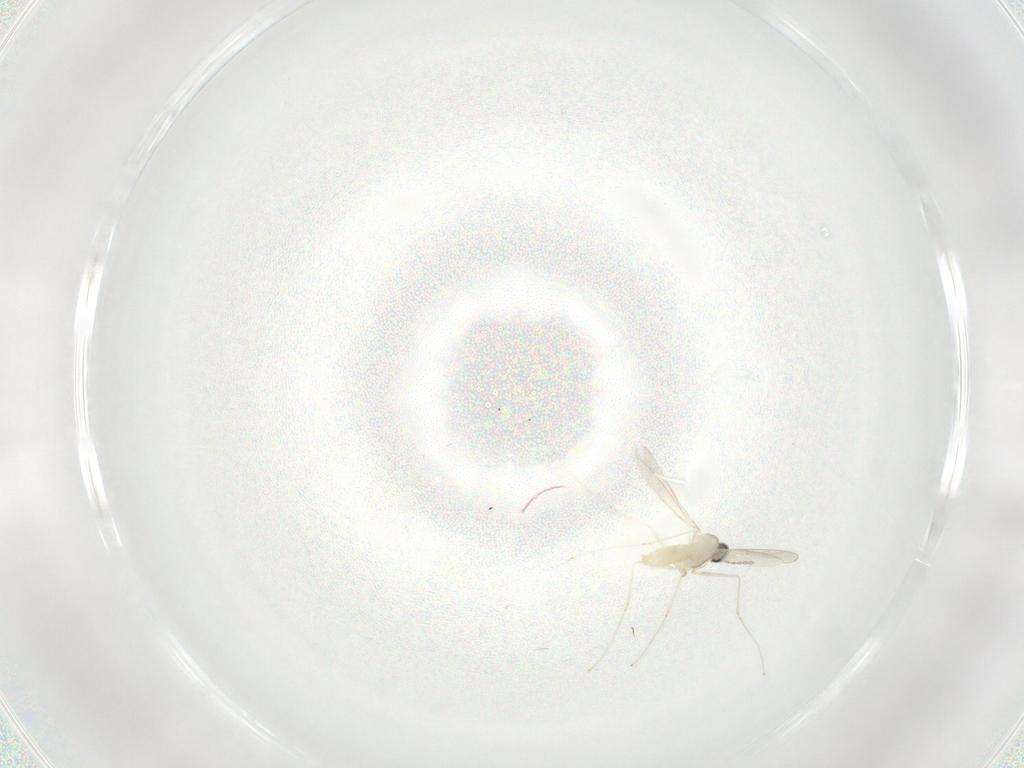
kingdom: Animalia
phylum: Arthropoda
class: Insecta
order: Diptera
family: Cecidomyiidae
